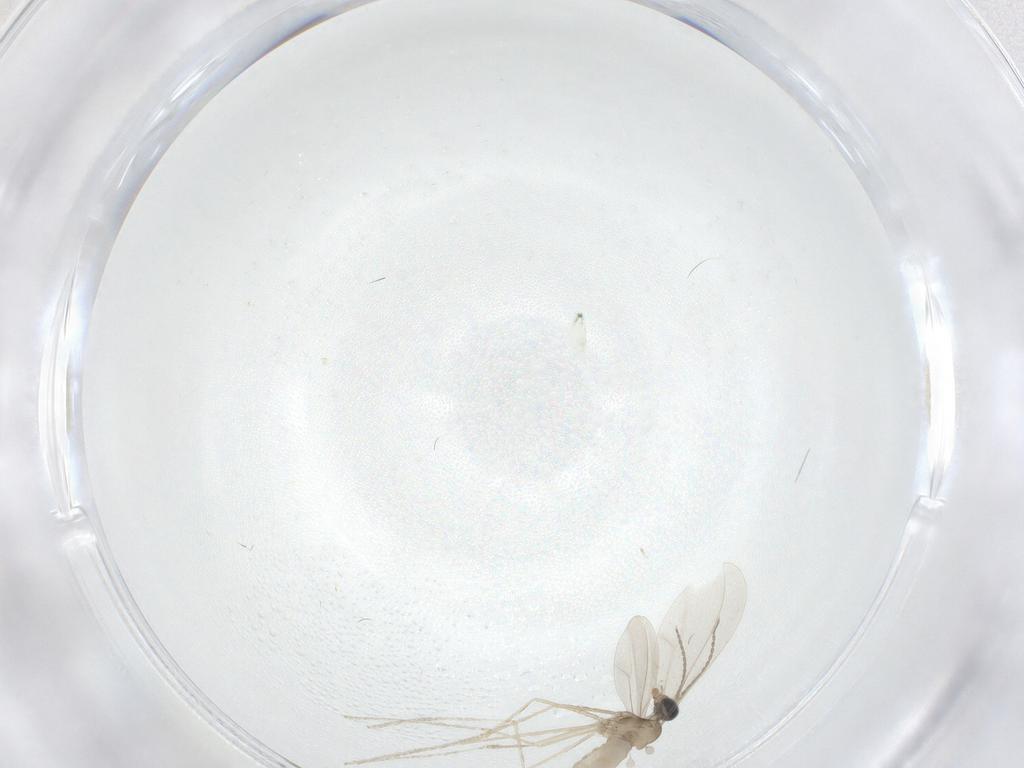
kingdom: Animalia
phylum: Arthropoda
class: Insecta
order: Diptera
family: Cecidomyiidae
